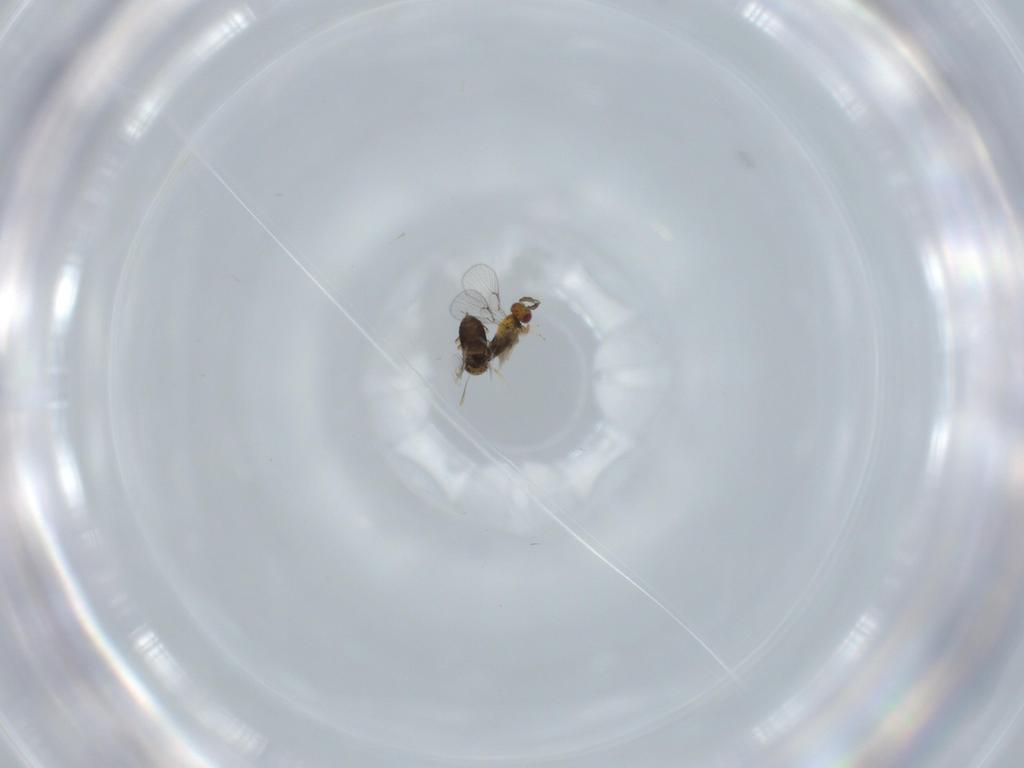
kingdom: Animalia
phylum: Arthropoda
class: Insecta
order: Hymenoptera
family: Trichogrammatidae
